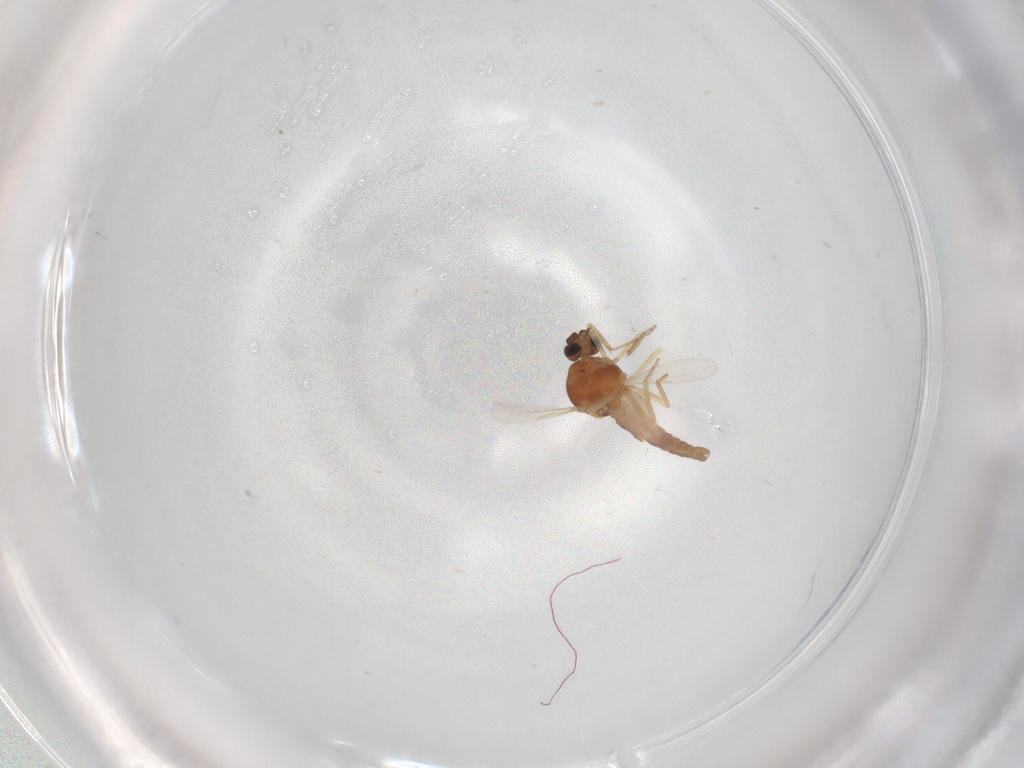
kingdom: Animalia
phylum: Arthropoda
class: Insecta
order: Diptera
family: Ceratopogonidae
